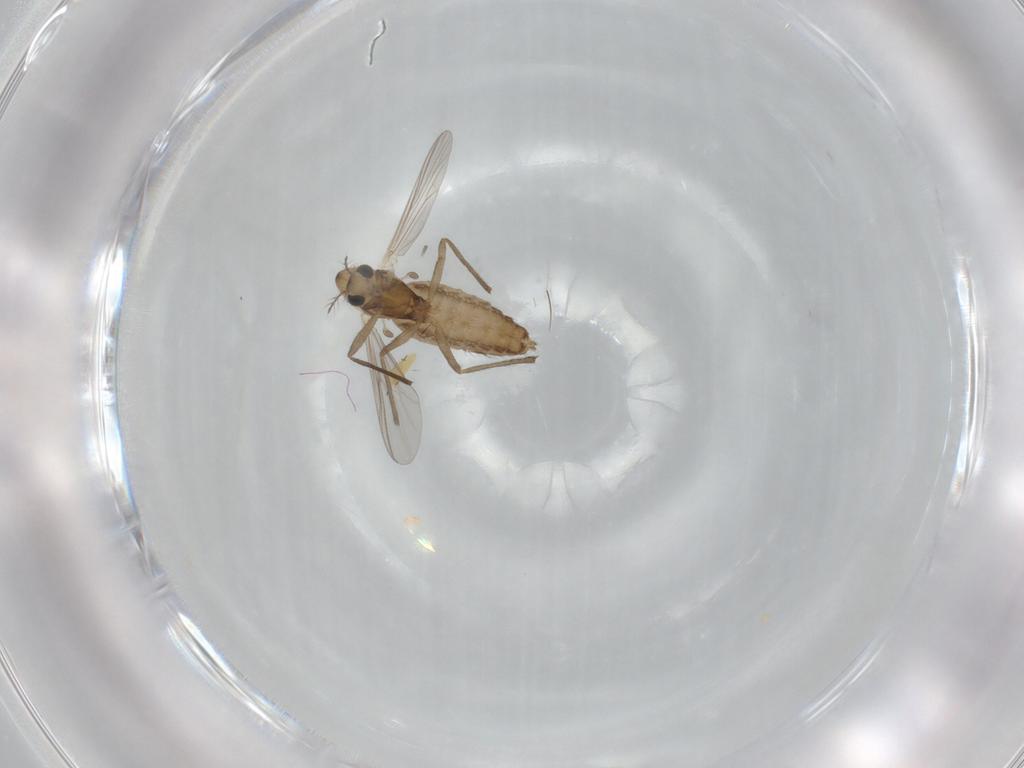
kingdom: Animalia
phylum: Arthropoda
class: Insecta
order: Diptera
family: Chironomidae
